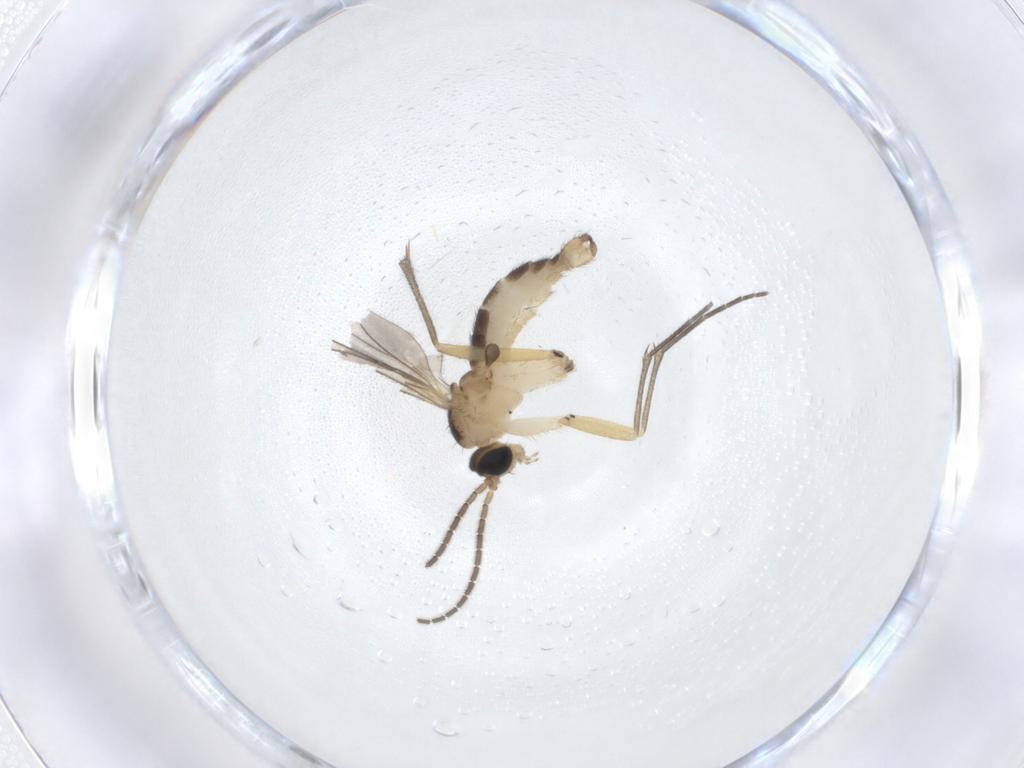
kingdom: Animalia
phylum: Arthropoda
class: Insecta
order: Diptera
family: Sciaridae
